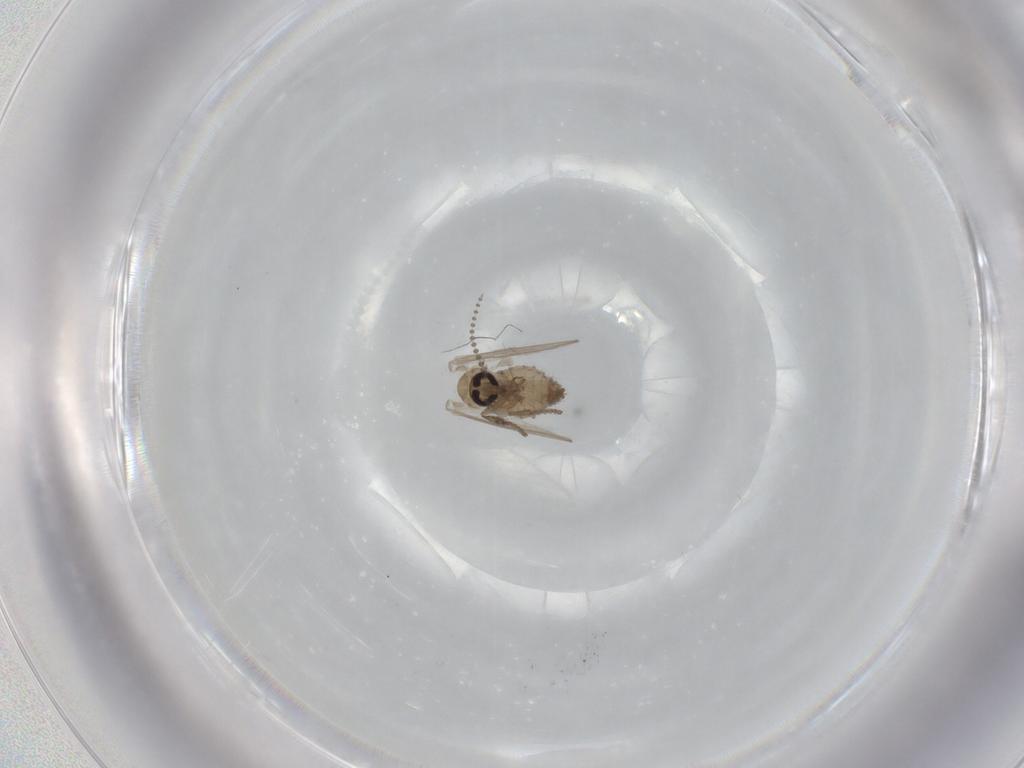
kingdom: Animalia
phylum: Arthropoda
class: Insecta
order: Diptera
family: Psychodidae
